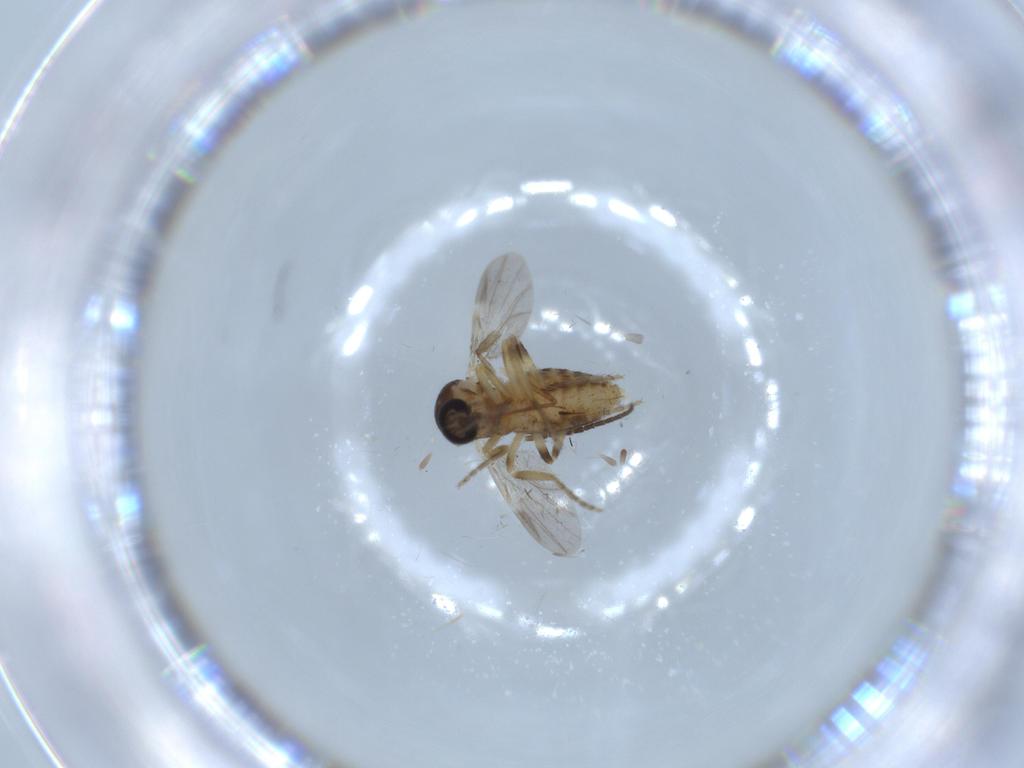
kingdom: Animalia
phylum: Arthropoda
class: Insecta
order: Diptera
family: Ceratopogonidae
